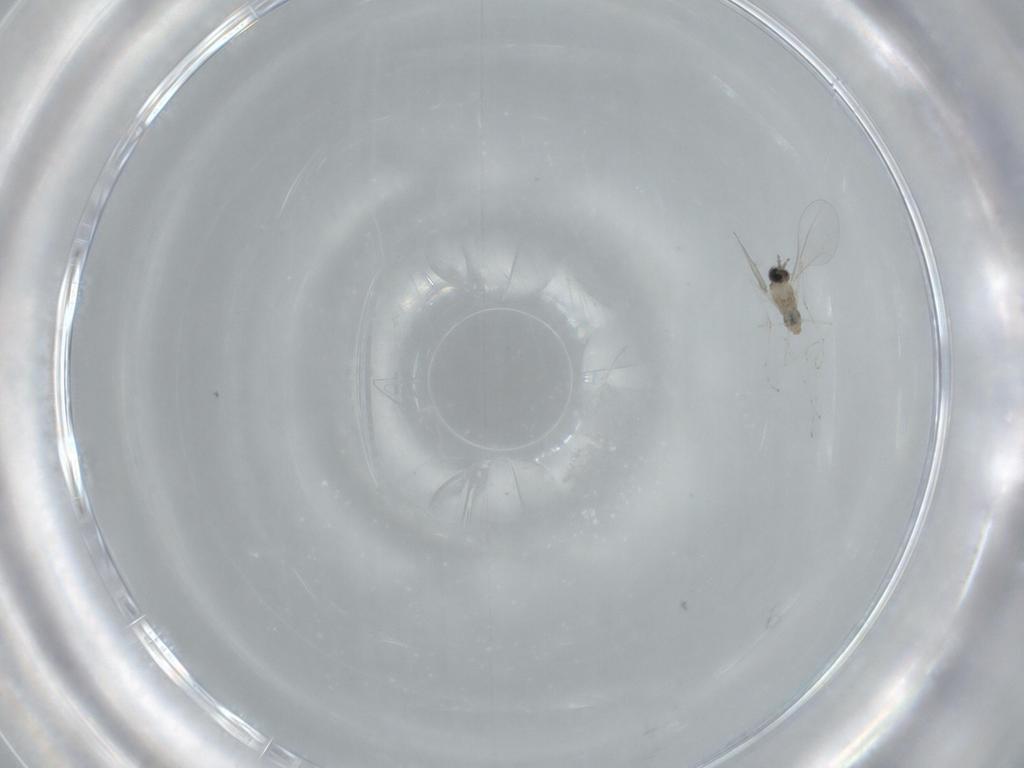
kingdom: Animalia
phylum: Arthropoda
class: Insecta
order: Diptera
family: Cecidomyiidae
